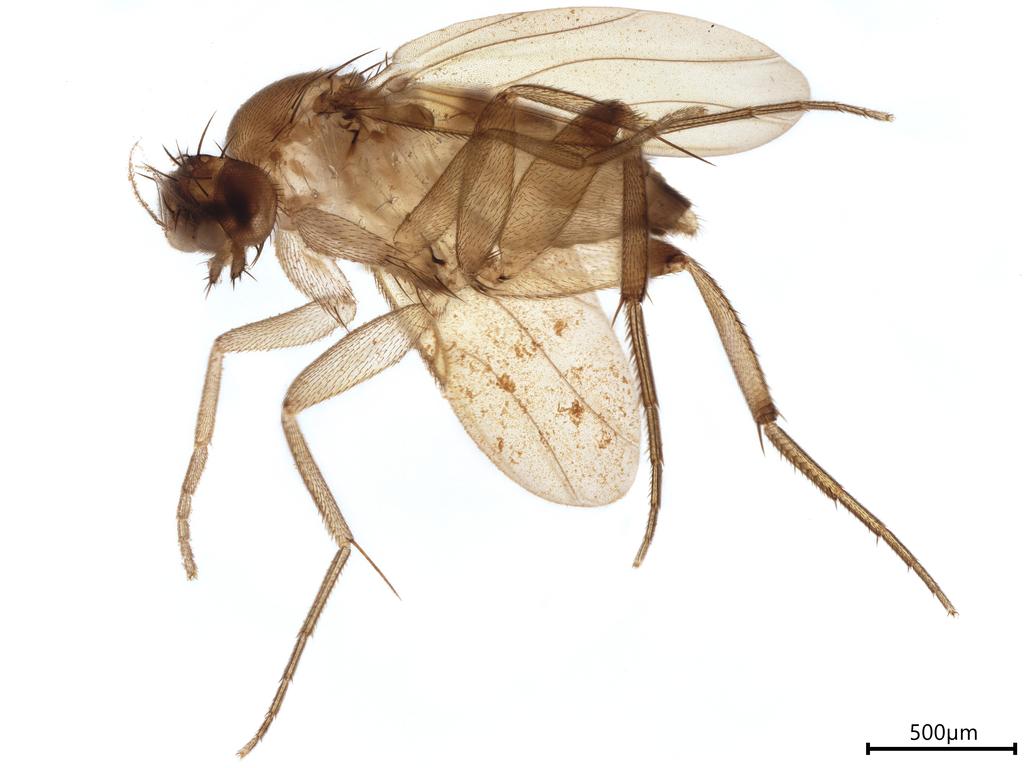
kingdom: Animalia
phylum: Arthropoda
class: Insecta
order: Diptera
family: Phoridae
